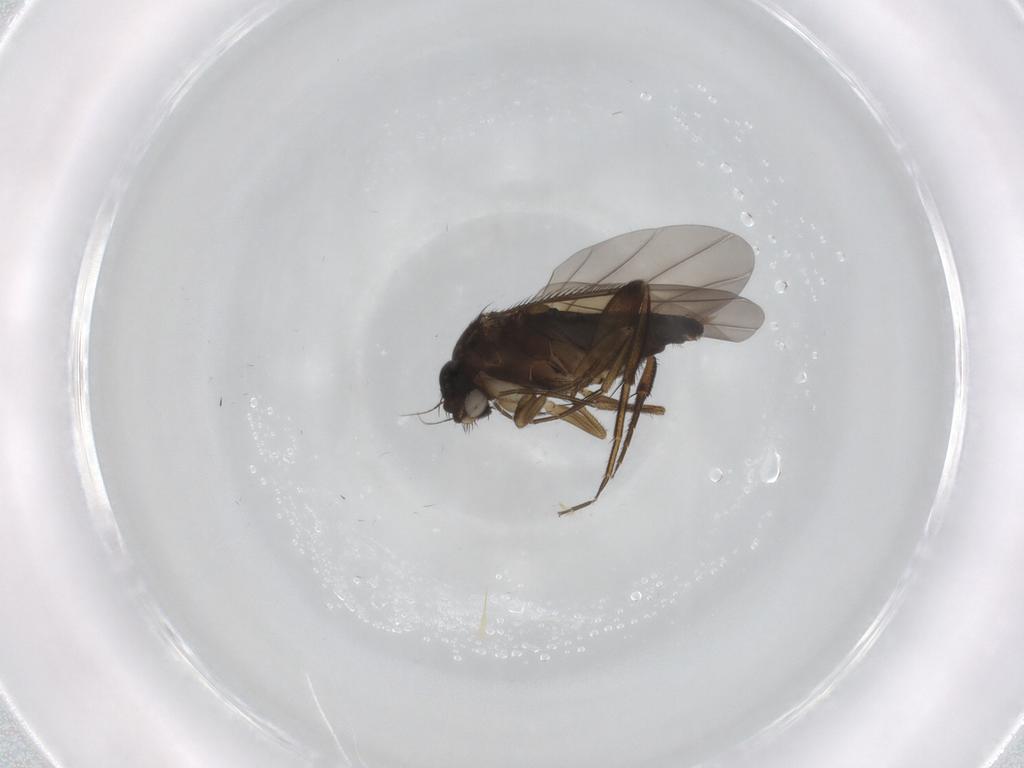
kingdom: Animalia
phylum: Arthropoda
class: Insecta
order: Diptera
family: Phoridae
